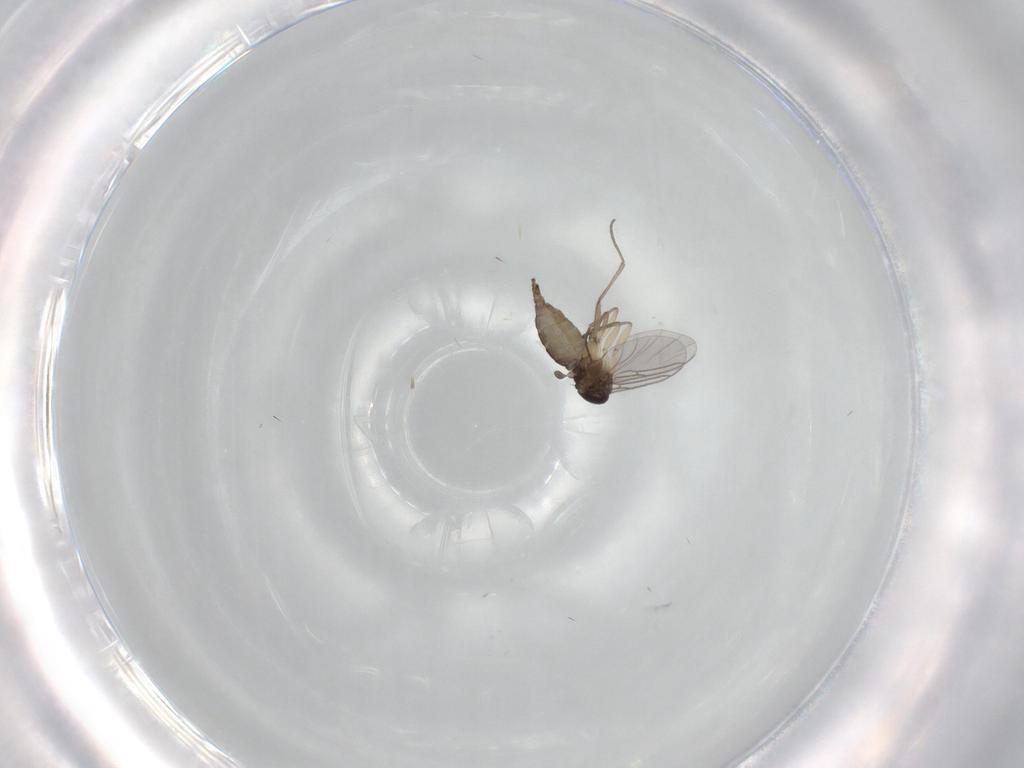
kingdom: Animalia
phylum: Arthropoda
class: Insecta
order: Diptera
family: Sciaridae
